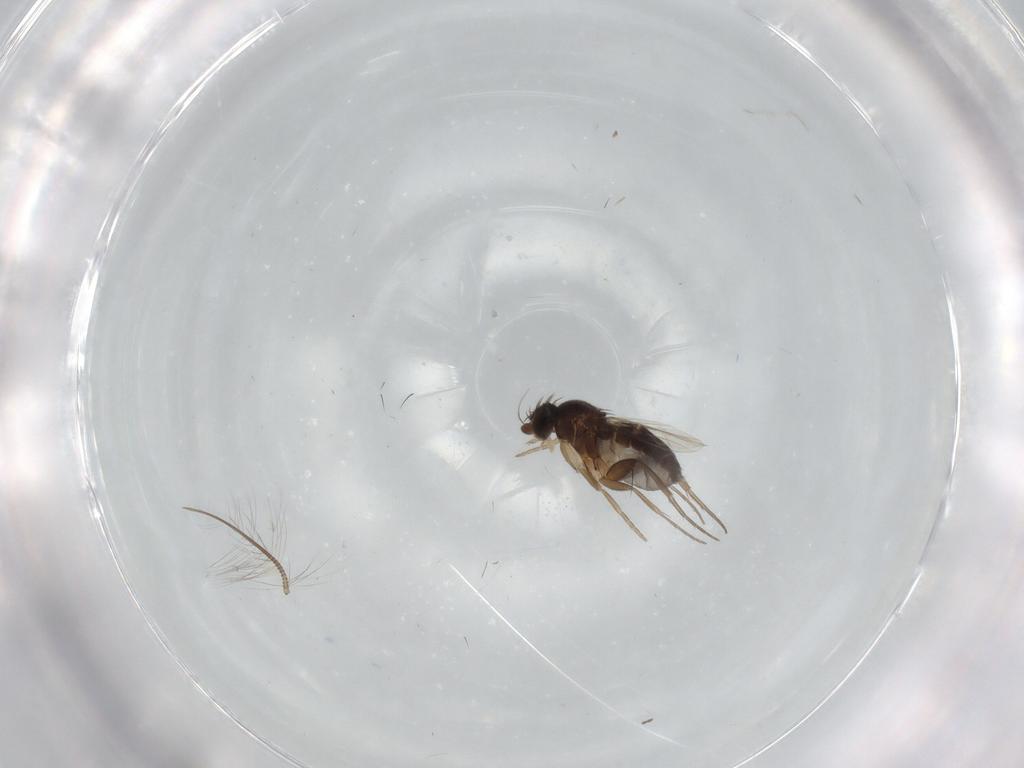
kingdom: Animalia
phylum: Arthropoda
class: Insecta
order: Diptera
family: Phoridae
